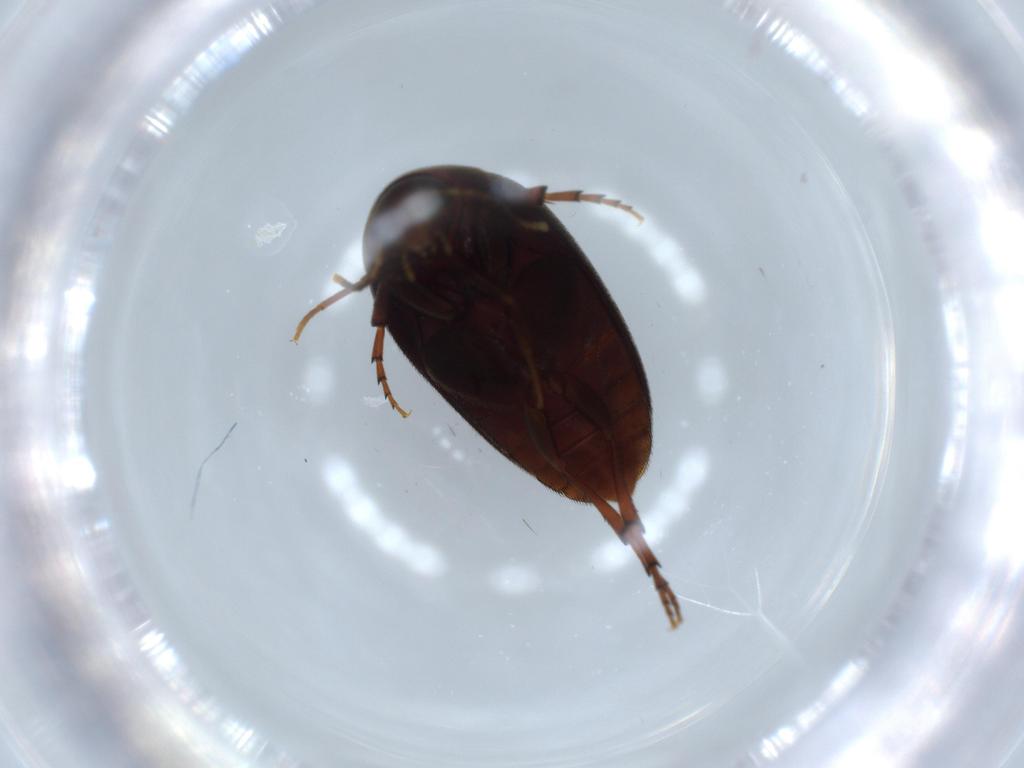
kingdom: Animalia
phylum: Arthropoda
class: Insecta
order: Coleoptera
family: Eucinetidae
